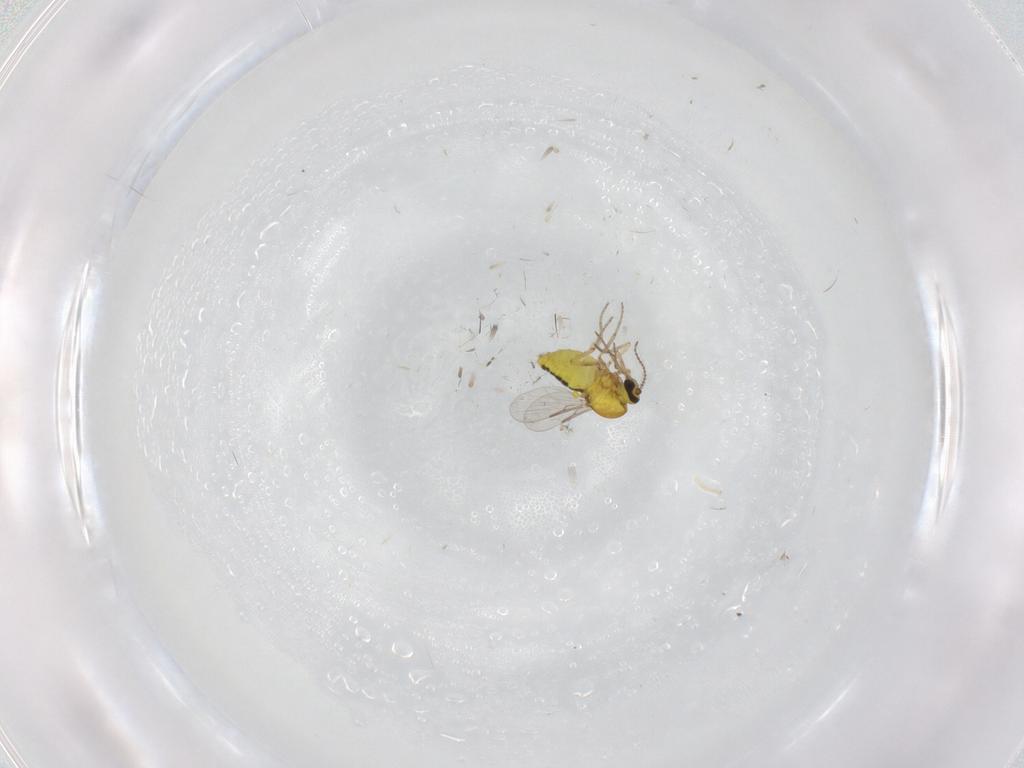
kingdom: Animalia
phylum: Arthropoda
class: Insecta
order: Diptera
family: Ceratopogonidae
